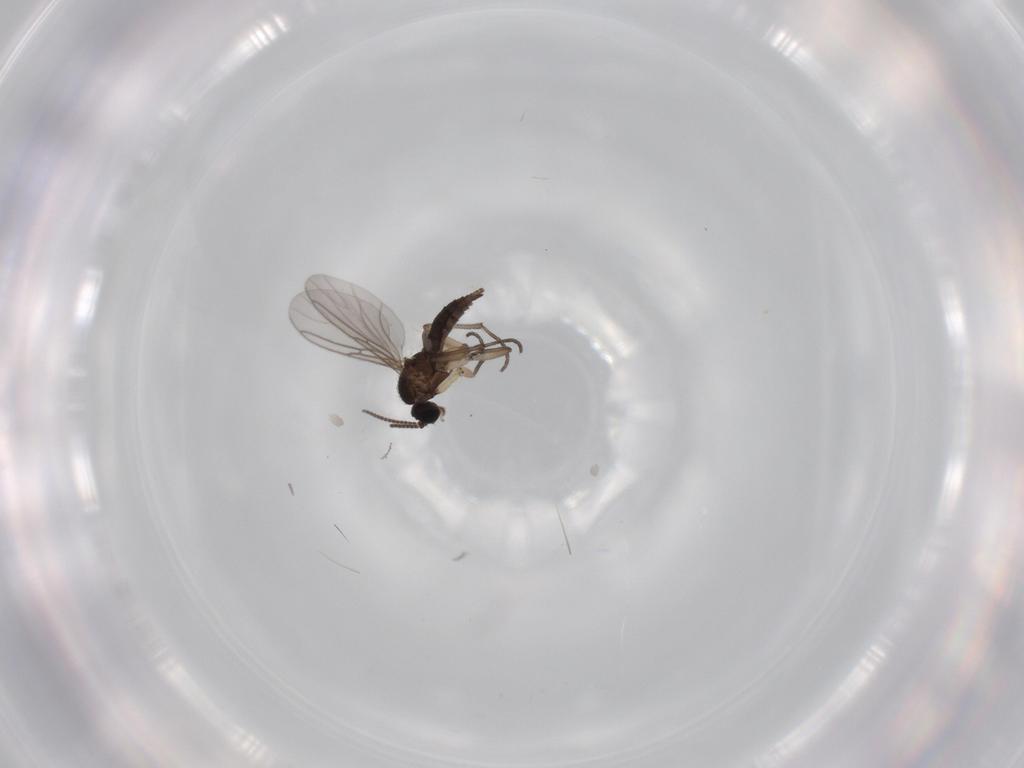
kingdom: Animalia
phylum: Arthropoda
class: Insecta
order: Diptera
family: Sciaridae
